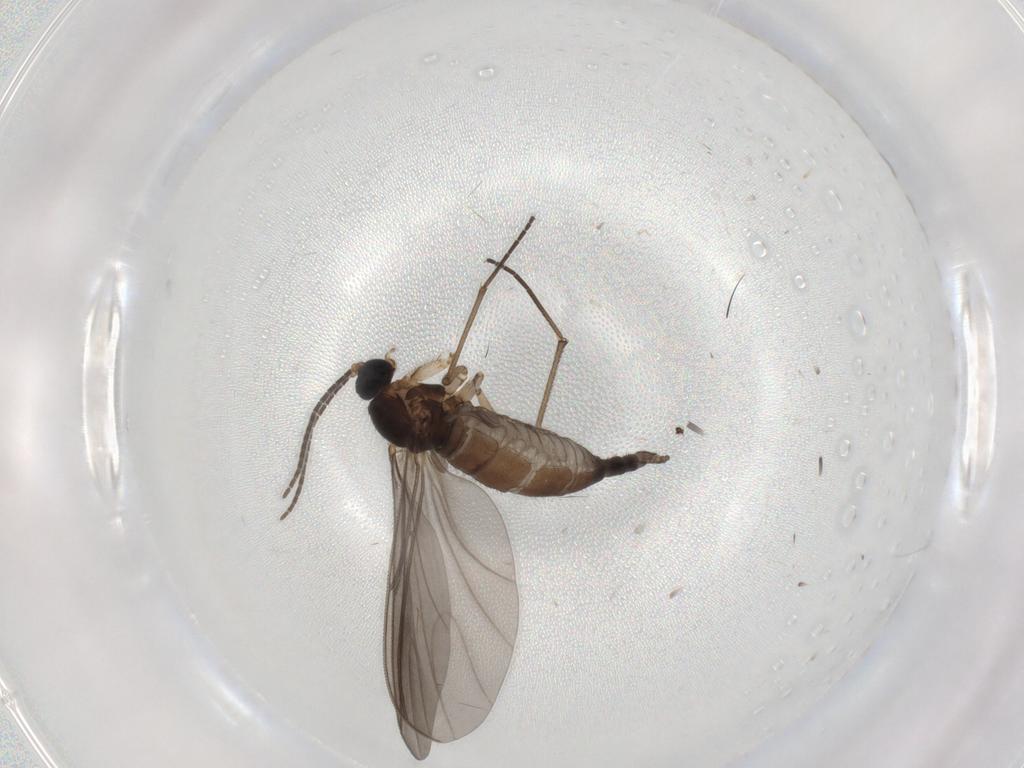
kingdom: Animalia
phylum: Arthropoda
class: Insecta
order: Diptera
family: Sciaridae
